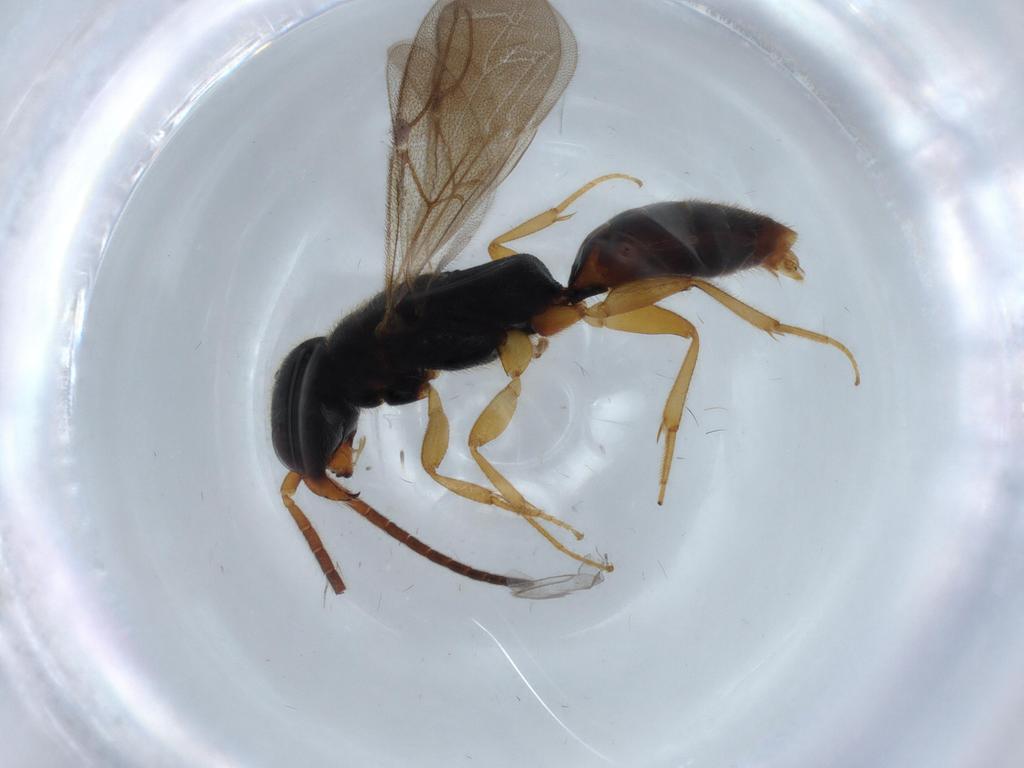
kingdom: Animalia
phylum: Arthropoda
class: Insecta
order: Hymenoptera
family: Bethylidae
